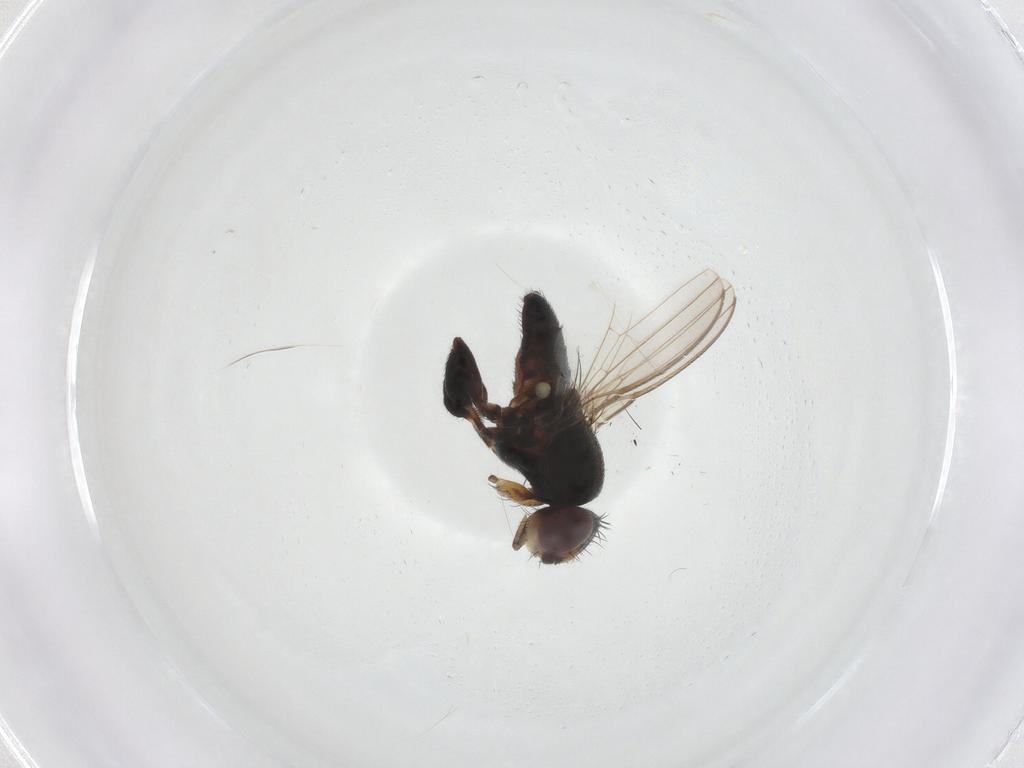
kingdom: Animalia
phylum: Arthropoda
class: Insecta
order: Diptera
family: Milichiidae
